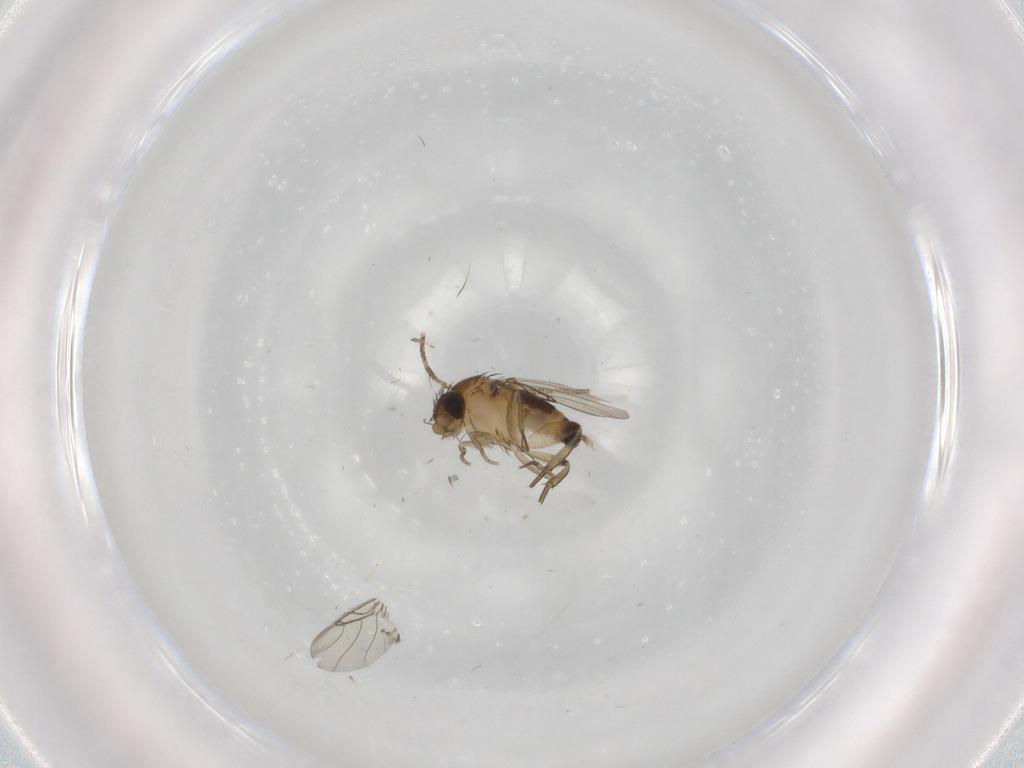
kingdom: Animalia
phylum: Arthropoda
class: Insecta
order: Diptera
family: Phoridae
